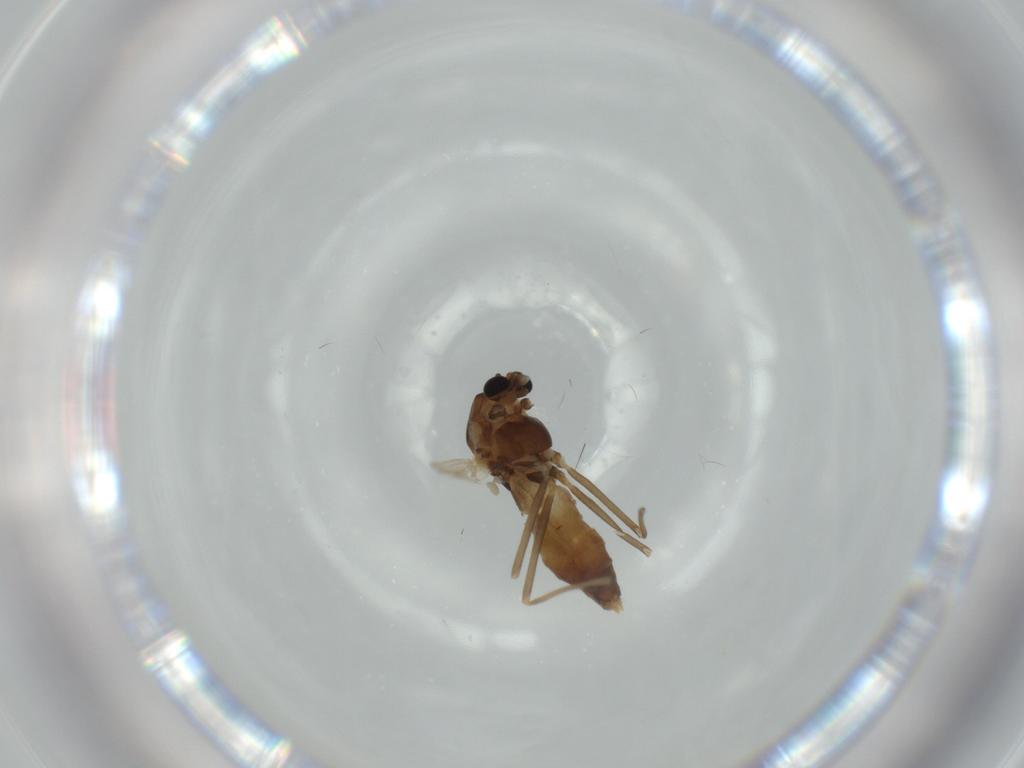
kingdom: Animalia
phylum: Arthropoda
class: Insecta
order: Diptera
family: Chironomidae
